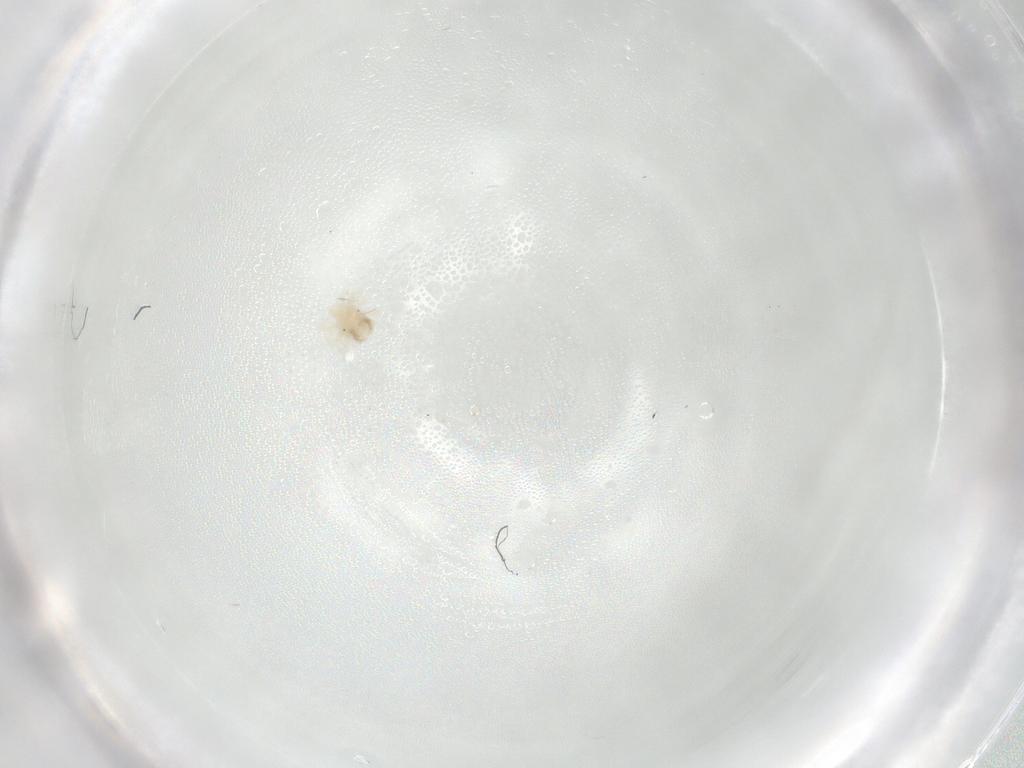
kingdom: Animalia
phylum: Arthropoda
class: Arachnida
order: Trombidiformes
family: Anystidae
